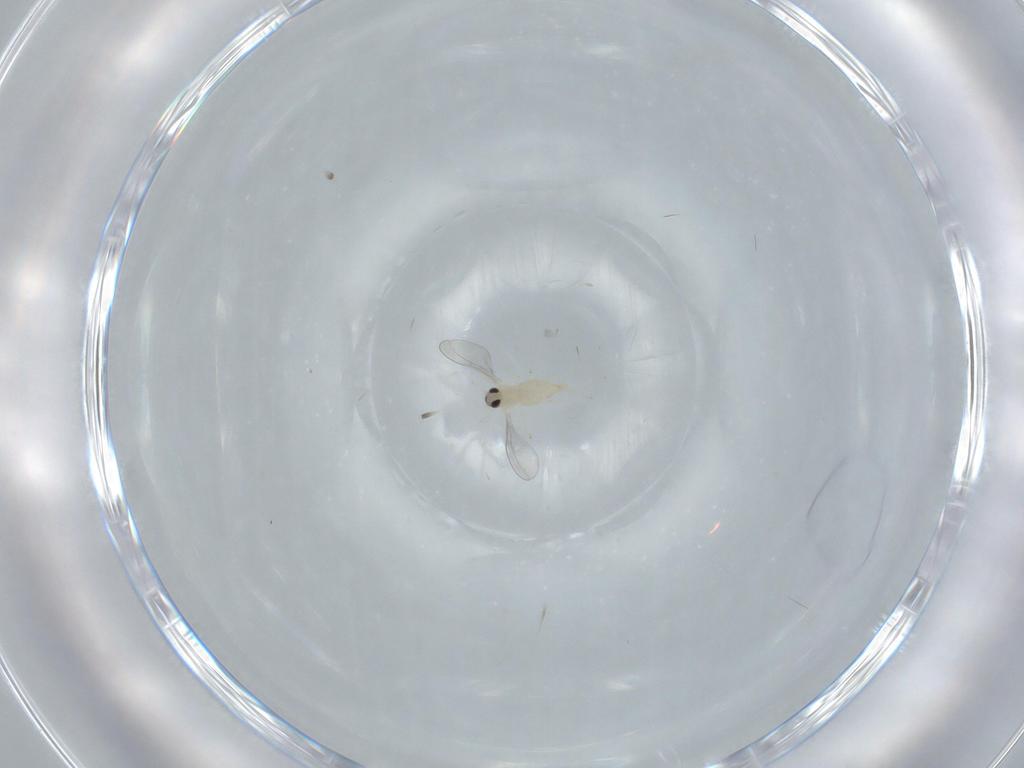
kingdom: Animalia
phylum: Arthropoda
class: Insecta
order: Diptera
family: Cecidomyiidae
